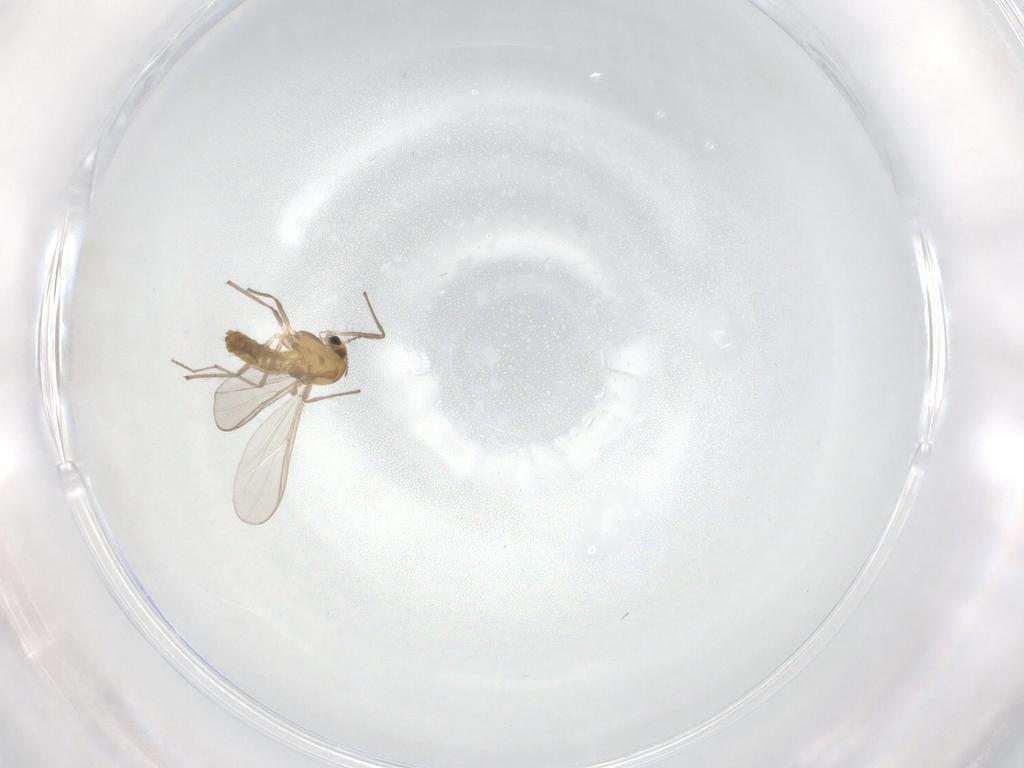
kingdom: Animalia
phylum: Arthropoda
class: Insecta
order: Diptera
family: Chironomidae
